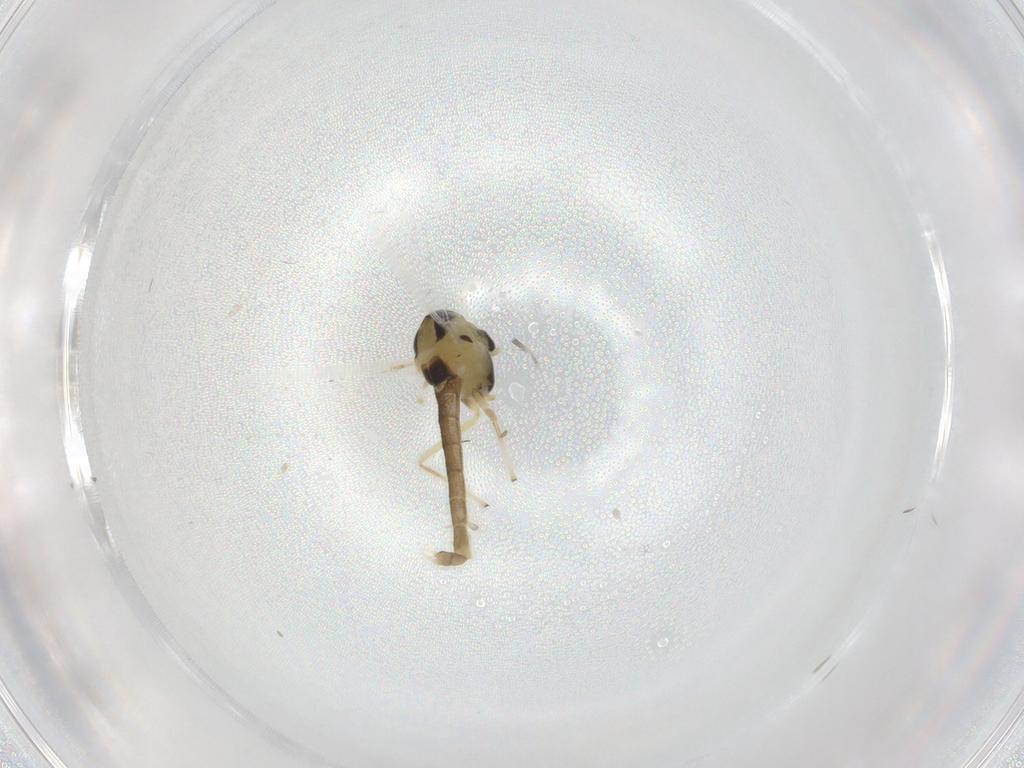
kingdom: Animalia
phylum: Arthropoda
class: Insecta
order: Diptera
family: Chironomidae
